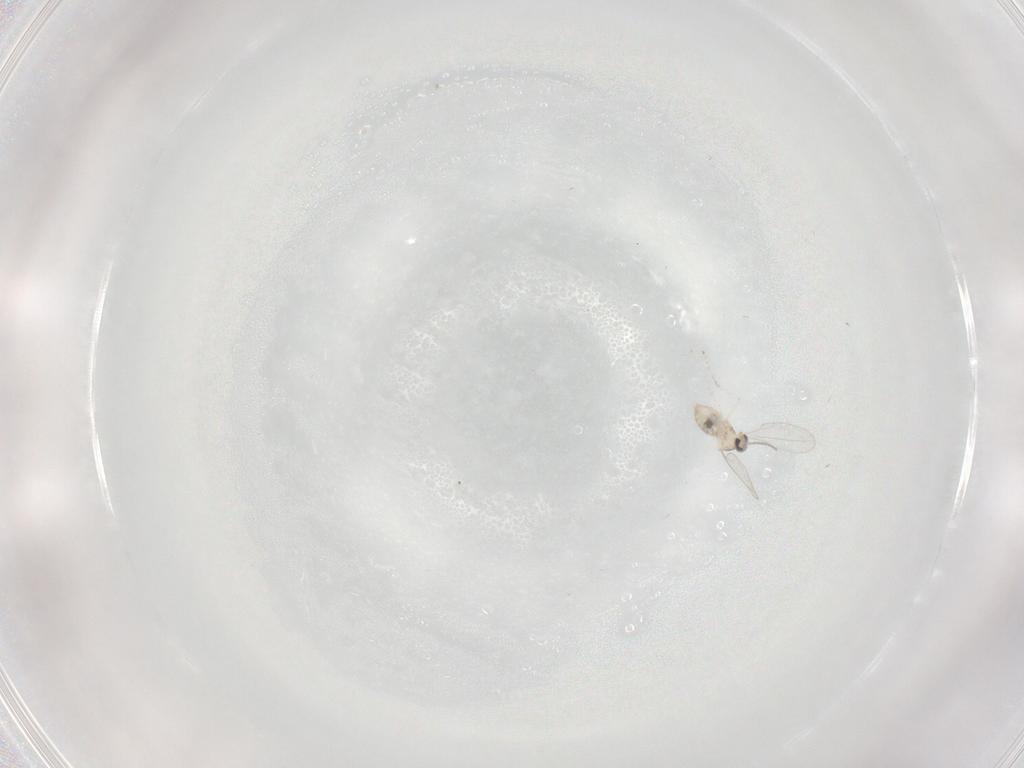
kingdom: Animalia
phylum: Arthropoda
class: Insecta
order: Diptera
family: Cecidomyiidae
